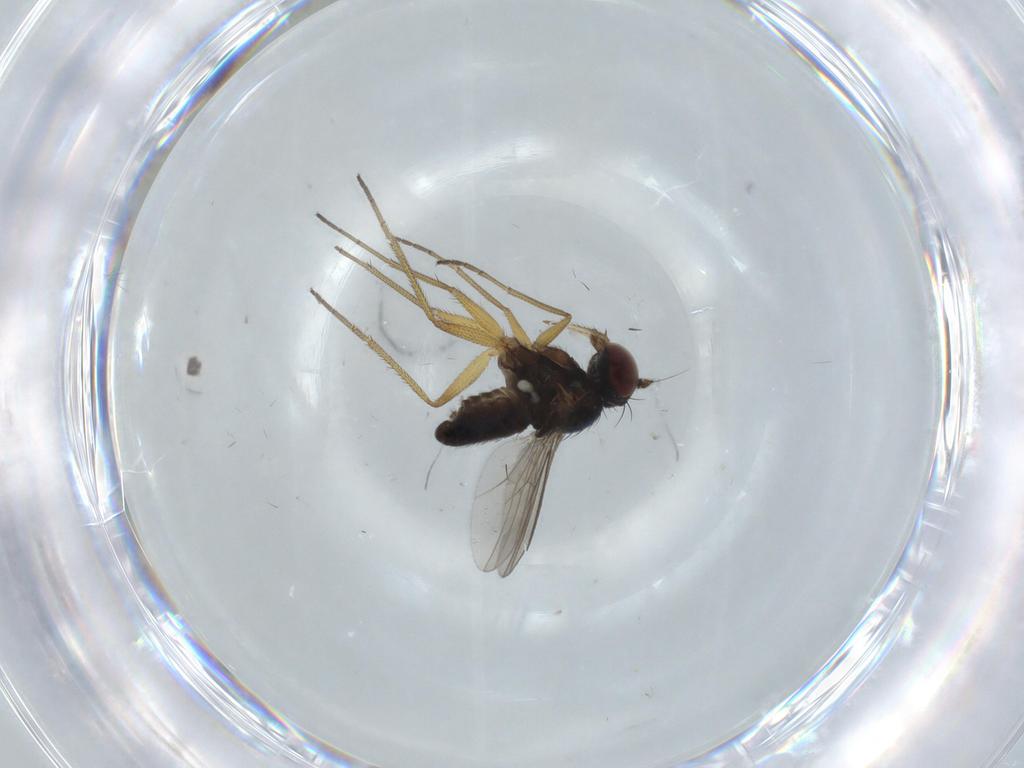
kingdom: Animalia
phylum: Arthropoda
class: Insecta
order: Diptera
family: Dolichopodidae
